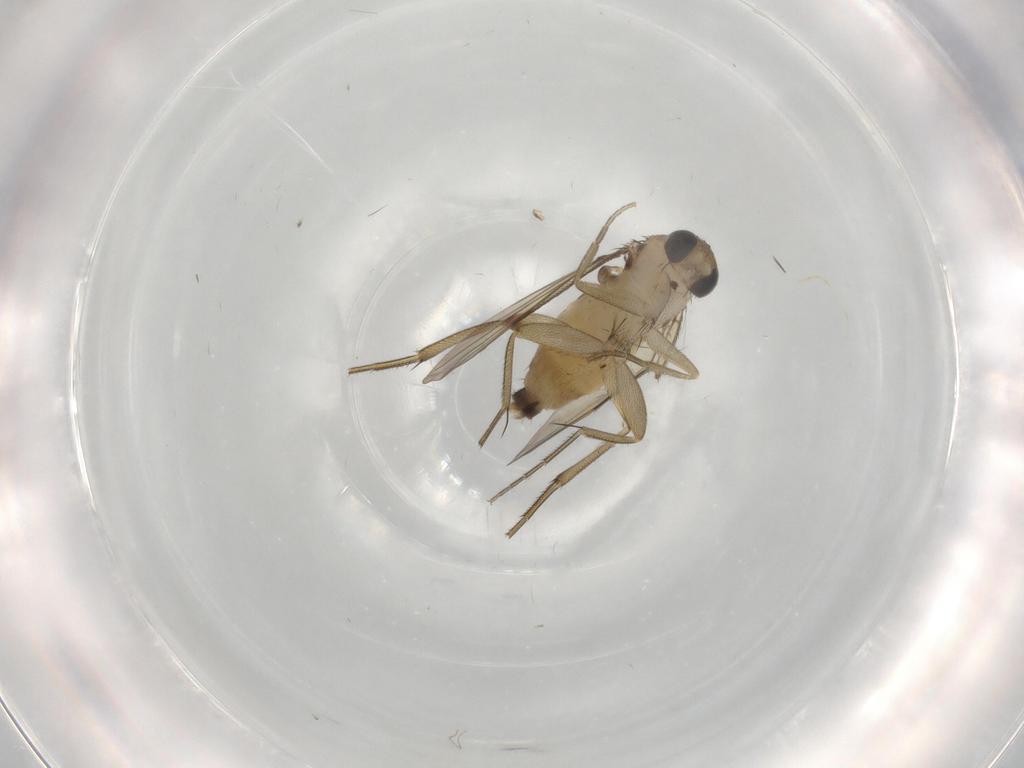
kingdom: Animalia
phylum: Arthropoda
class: Insecta
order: Diptera
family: Phoridae
